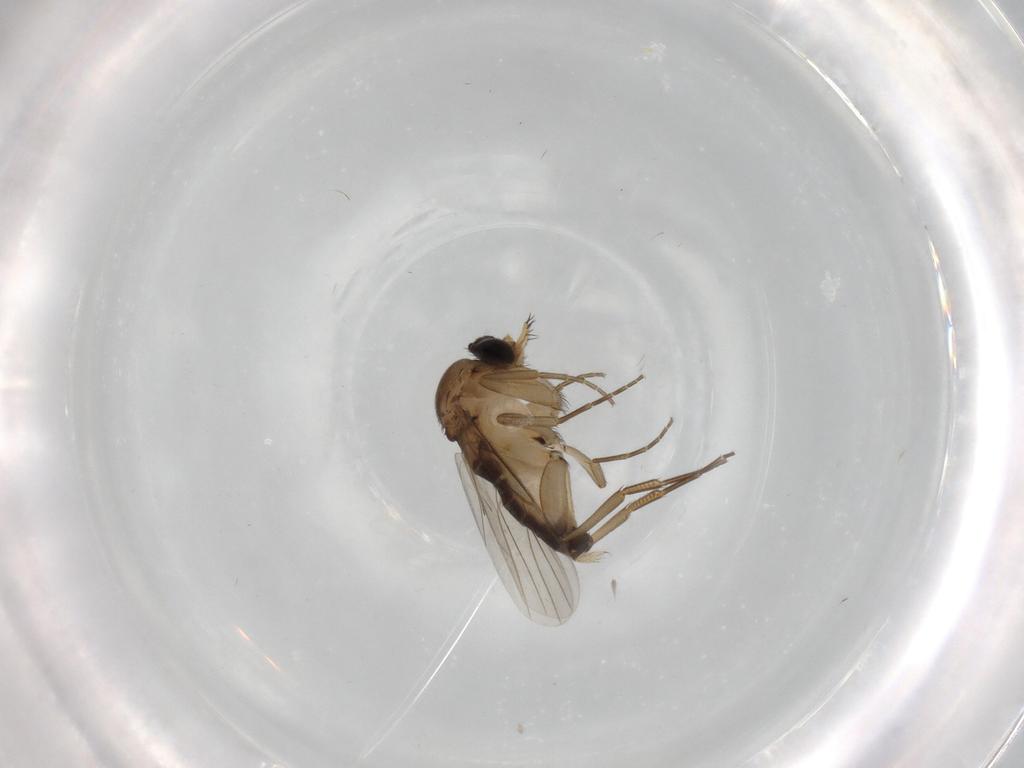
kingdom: Animalia
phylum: Arthropoda
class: Insecta
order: Diptera
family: Phoridae
